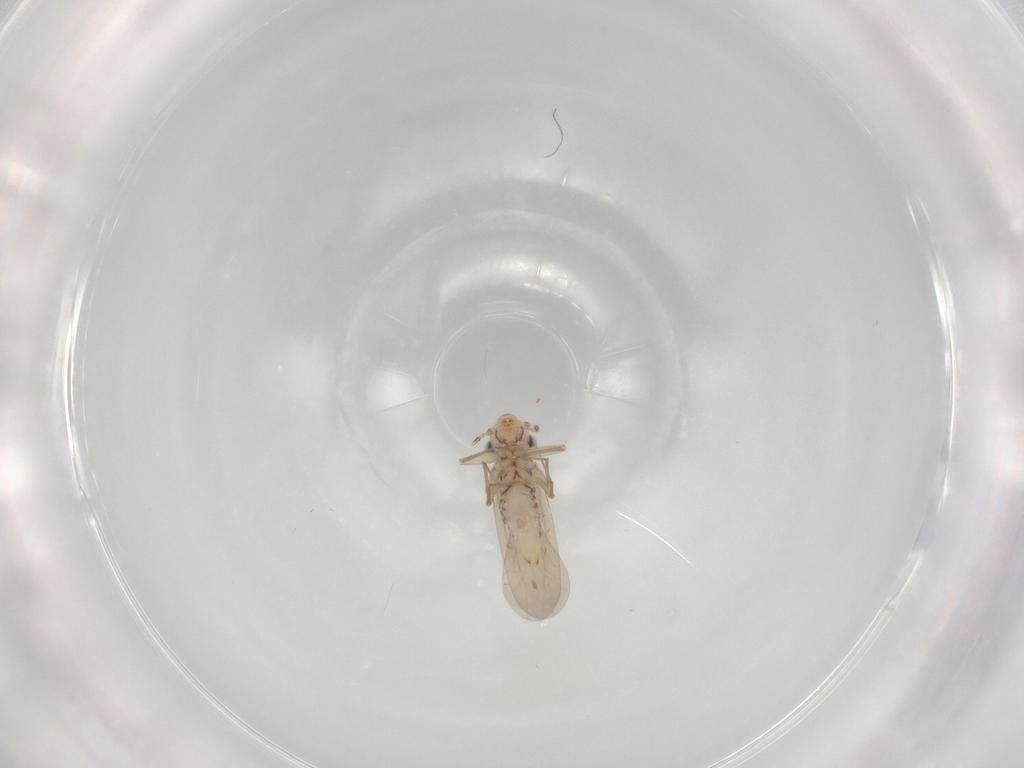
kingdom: Animalia
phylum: Arthropoda
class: Insecta
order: Psocodea
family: Lepidopsocidae
